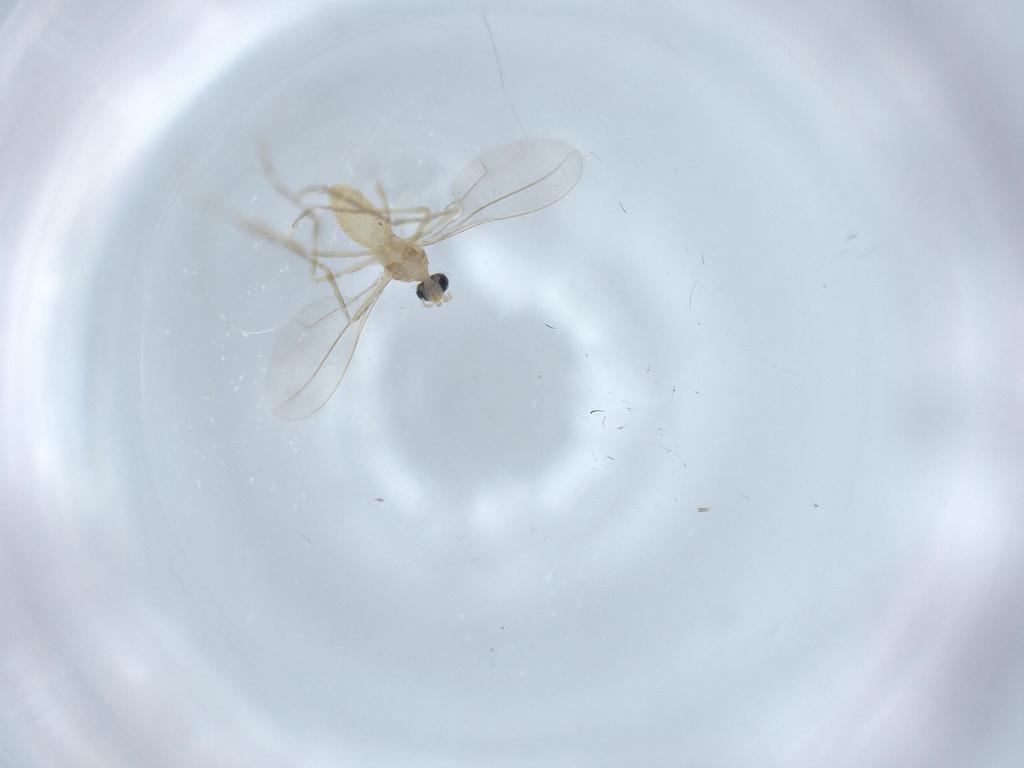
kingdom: Animalia
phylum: Arthropoda
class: Insecta
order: Diptera
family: Cecidomyiidae
